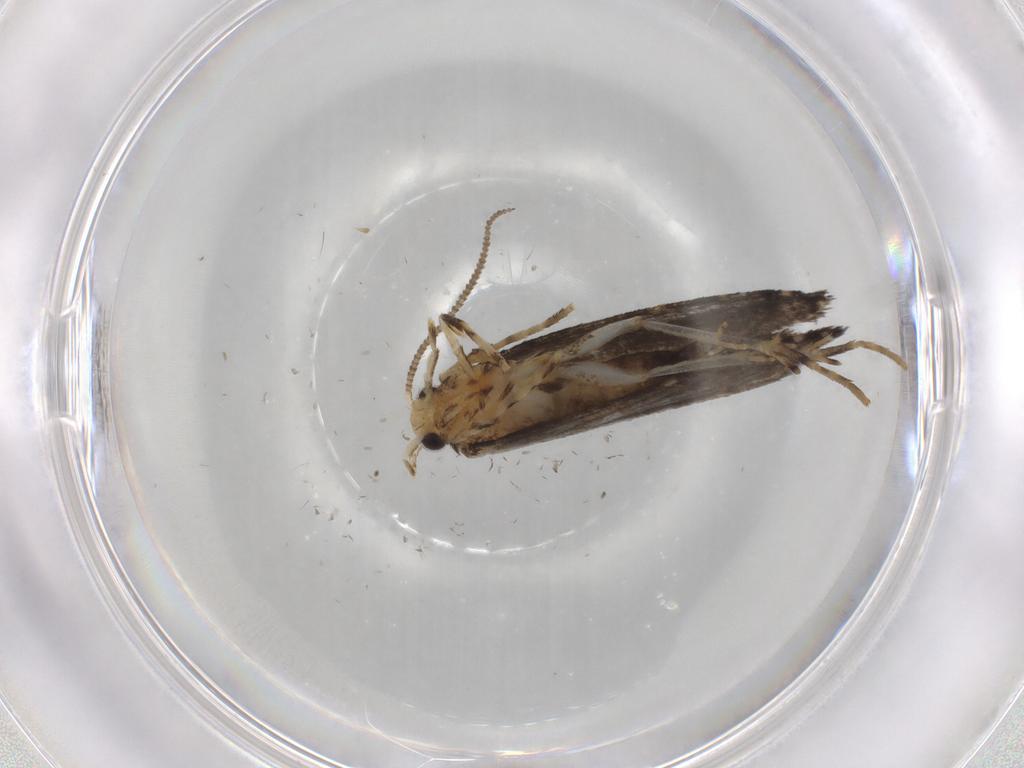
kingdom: Animalia
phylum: Arthropoda
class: Insecta
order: Lepidoptera
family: Tineidae
